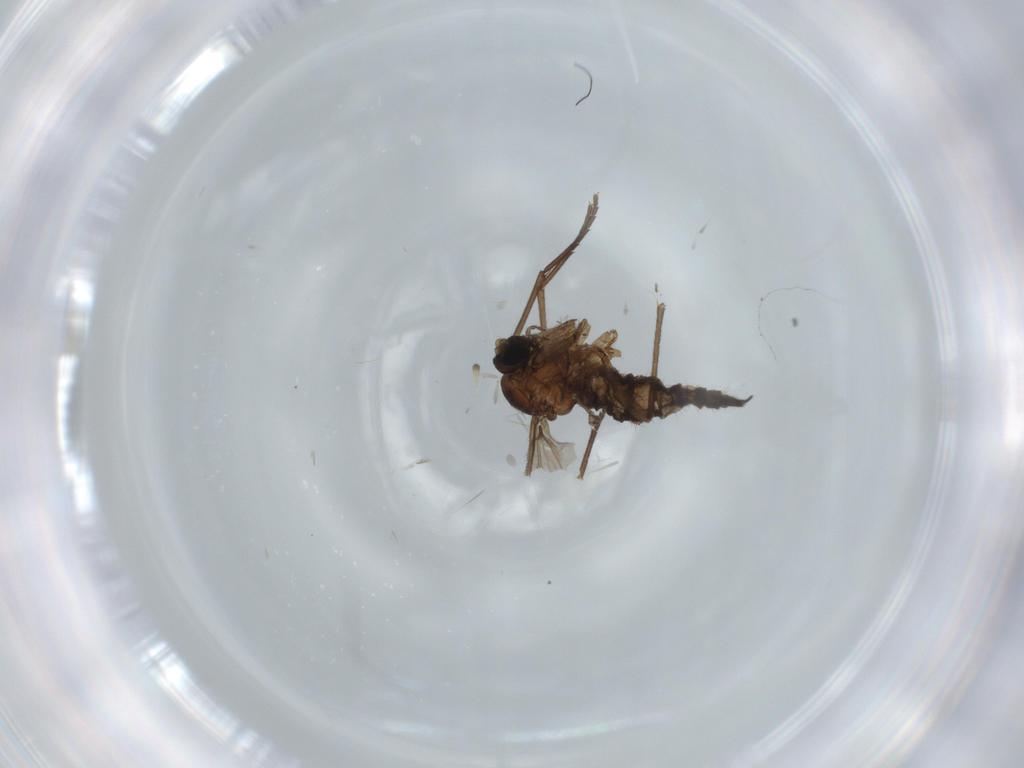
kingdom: Animalia
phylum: Arthropoda
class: Insecta
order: Diptera
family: Sciaridae
